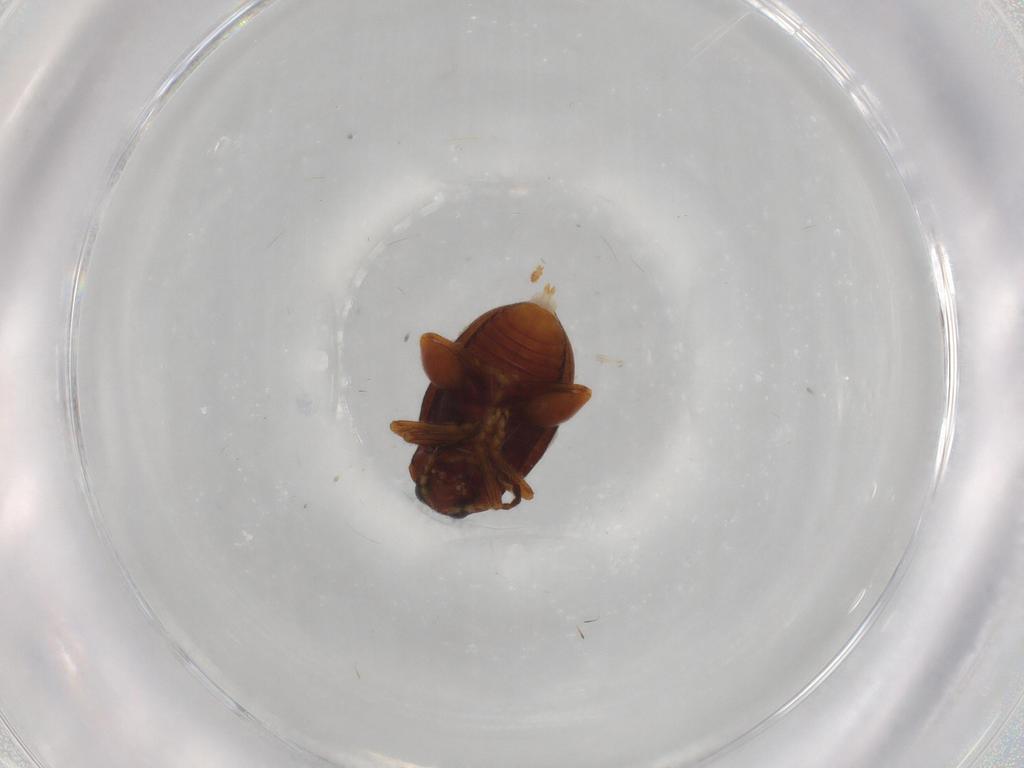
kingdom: Animalia
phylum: Arthropoda
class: Insecta
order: Coleoptera
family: Chrysomelidae
